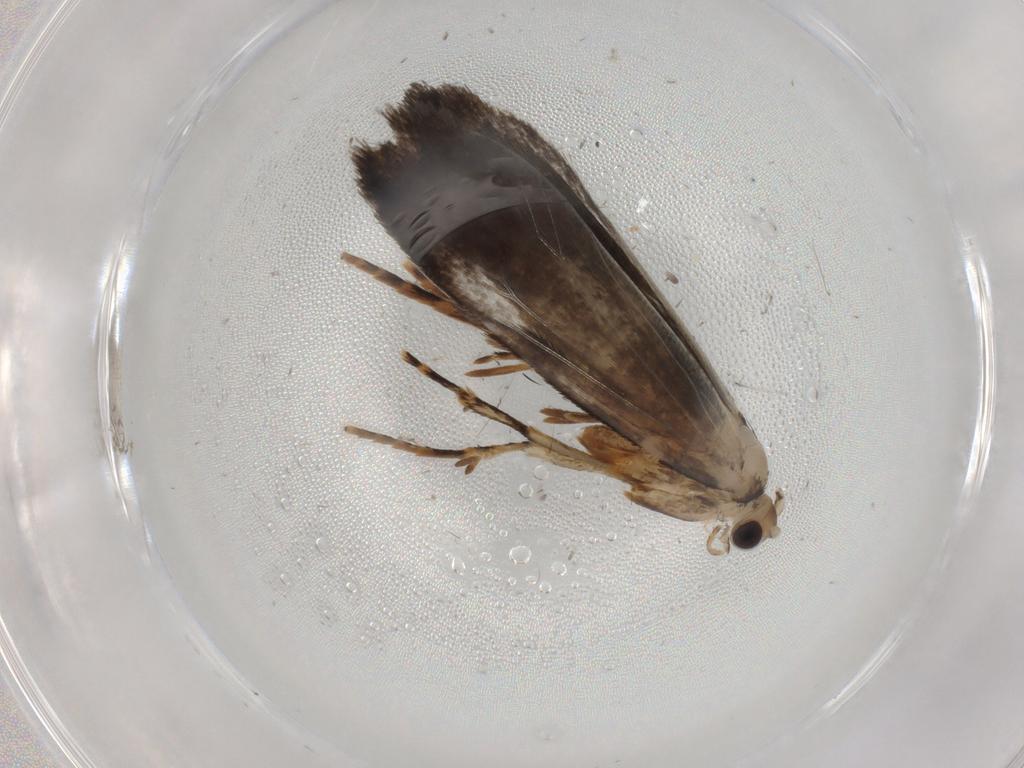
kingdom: Animalia
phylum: Arthropoda
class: Insecta
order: Lepidoptera
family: Tineidae
